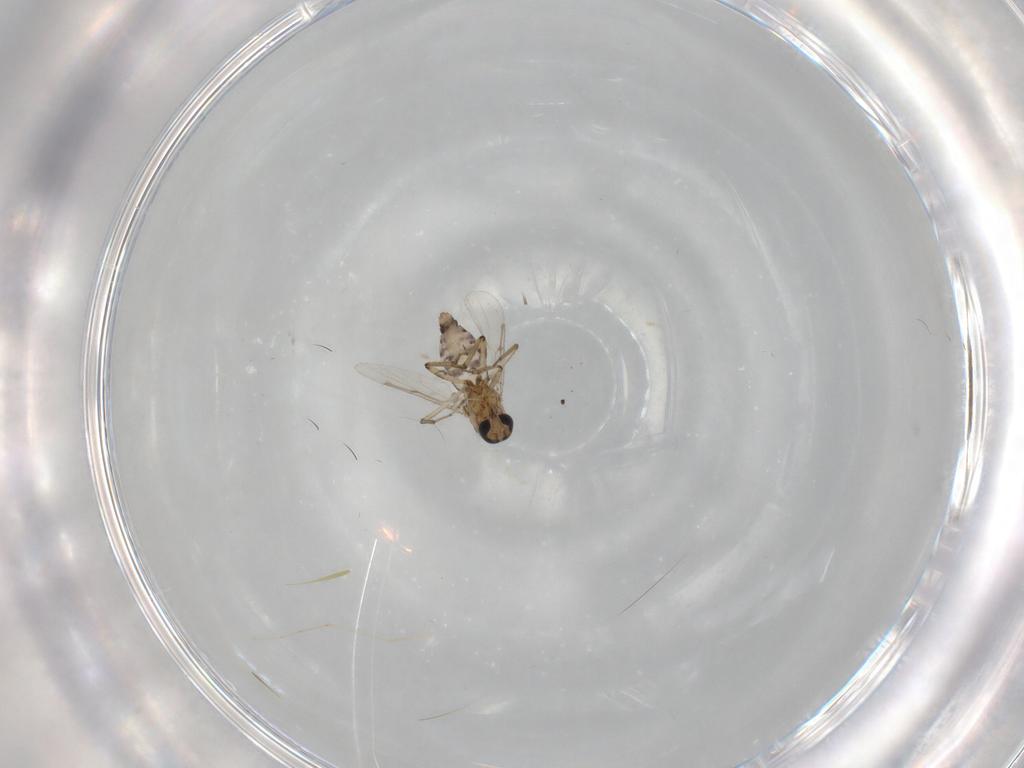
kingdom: Animalia
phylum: Arthropoda
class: Insecta
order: Diptera
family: Ceratopogonidae
